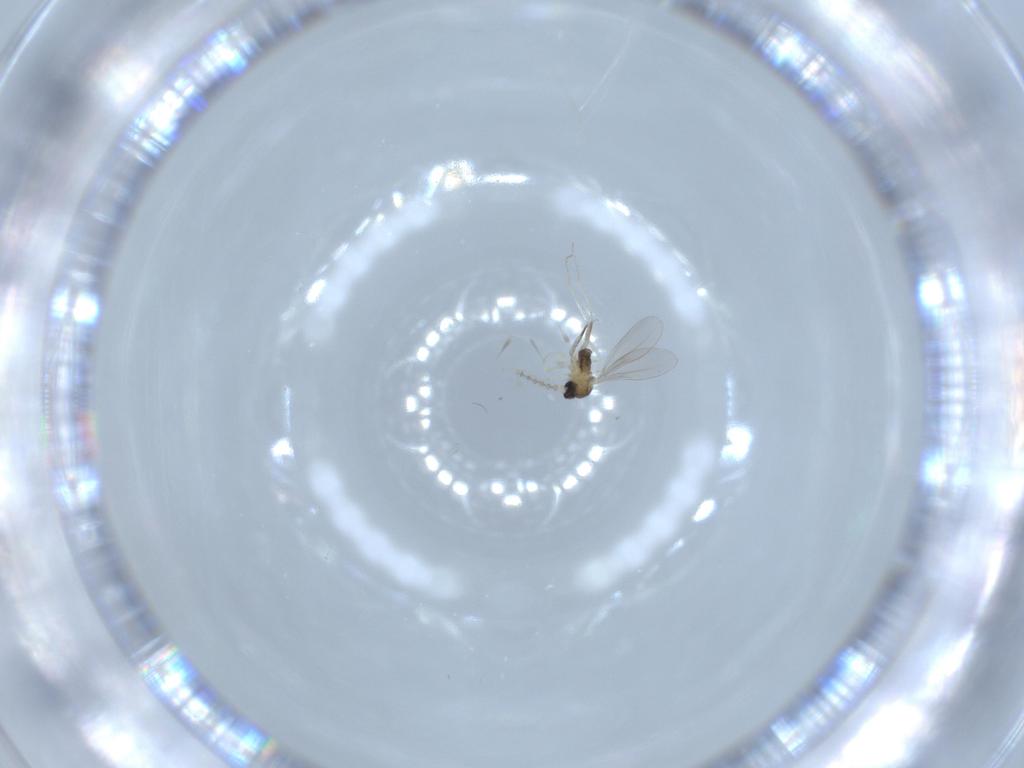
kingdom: Animalia
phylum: Arthropoda
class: Insecta
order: Diptera
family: Cecidomyiidae
